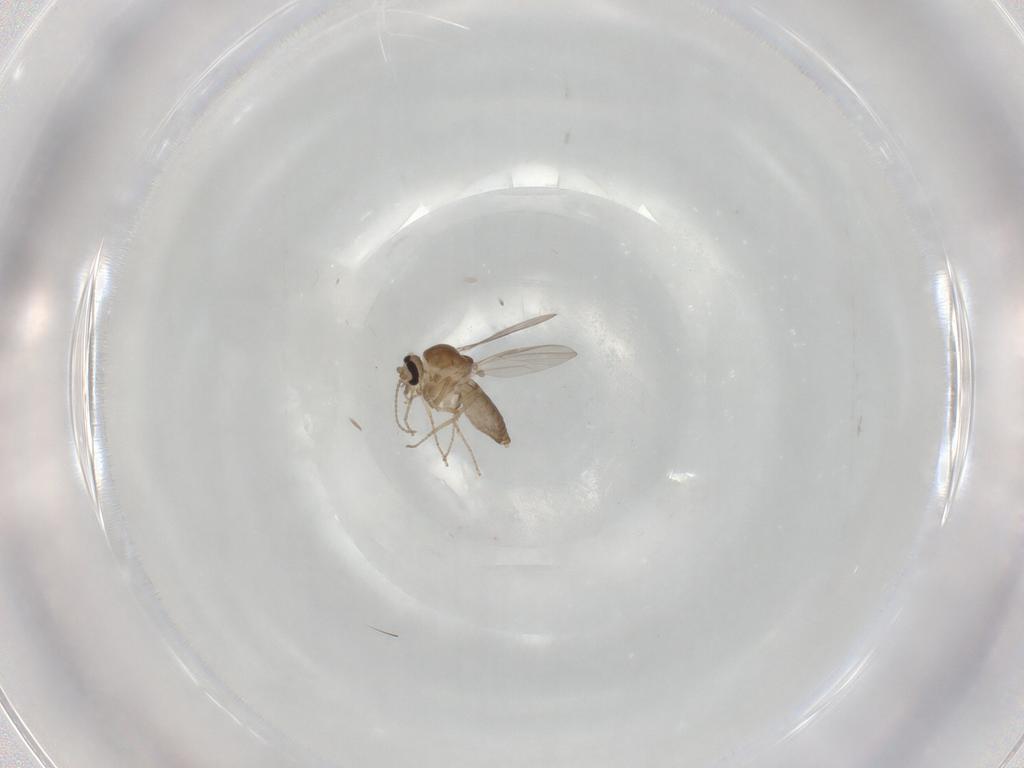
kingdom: Animalia
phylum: Arthropoda
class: Insecta
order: Diptera
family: Ceratopogonidae
